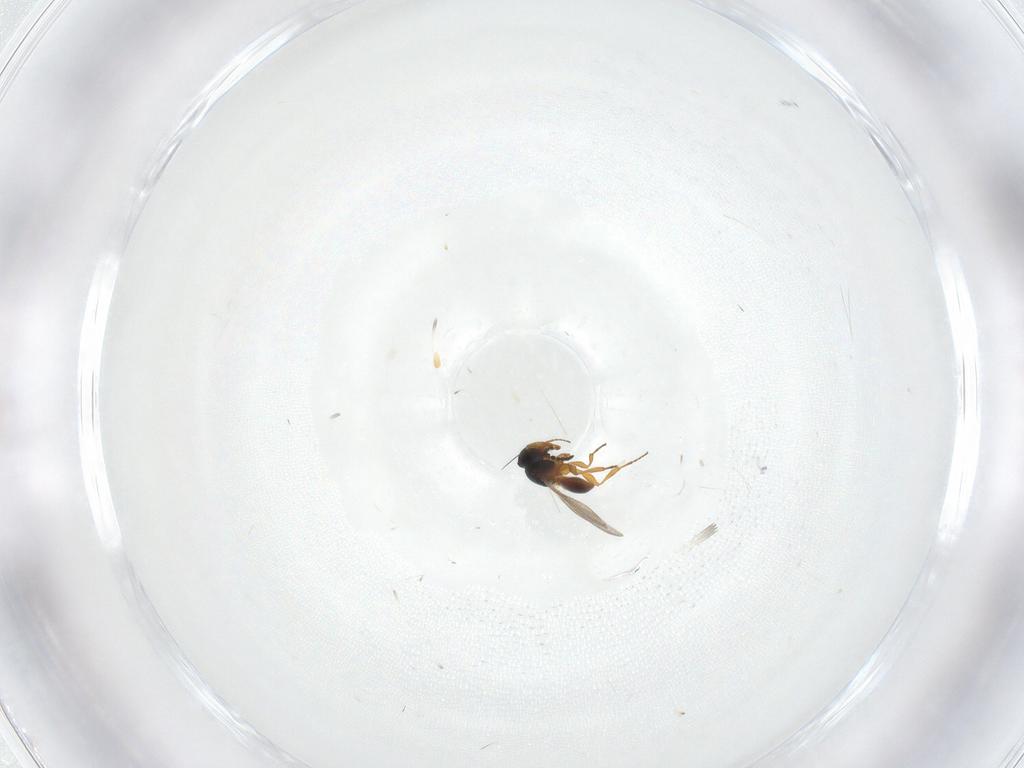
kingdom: Animalia
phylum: Arthropoda
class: Insecta
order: Hymenoptera
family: Platygastridae
